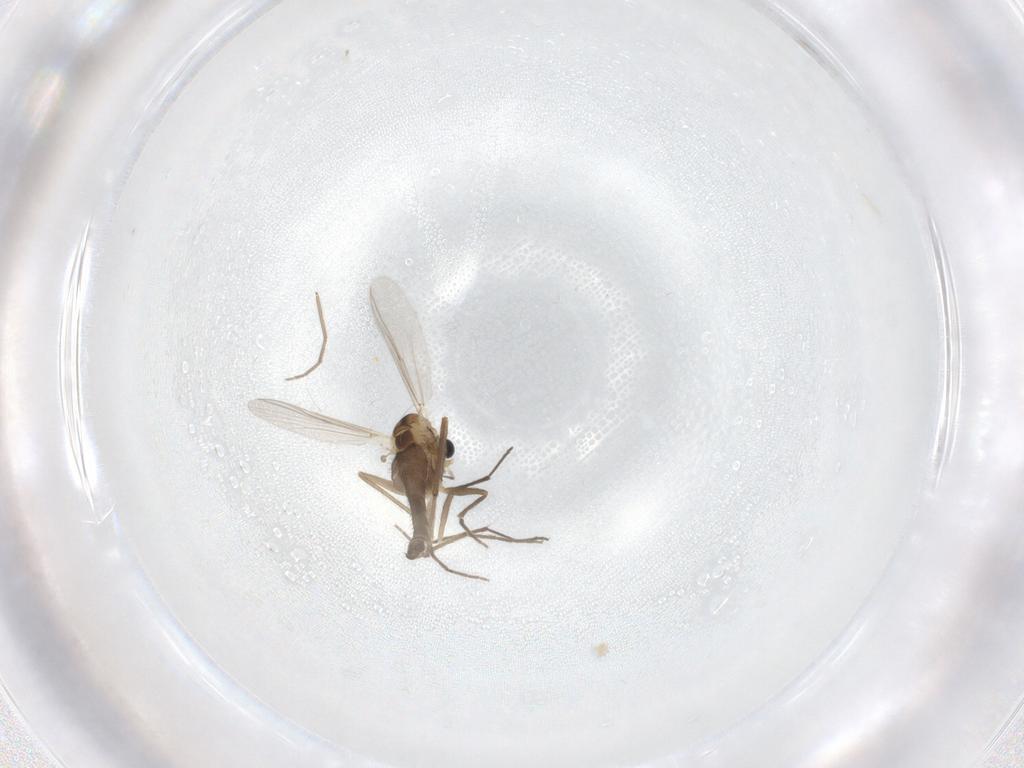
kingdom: Animalia
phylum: Arthropoda
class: Insecta
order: Diptera
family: Chironomidae
